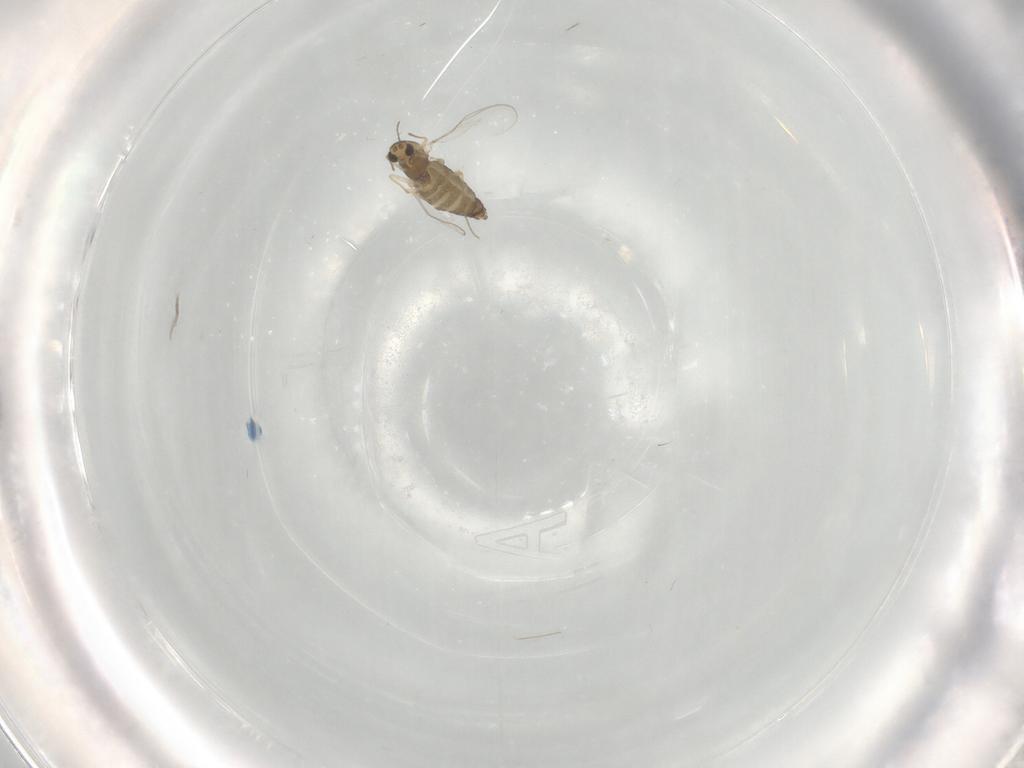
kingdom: Animalia
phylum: Arthropoda
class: Insecta
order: Diptera
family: Chironomidae
